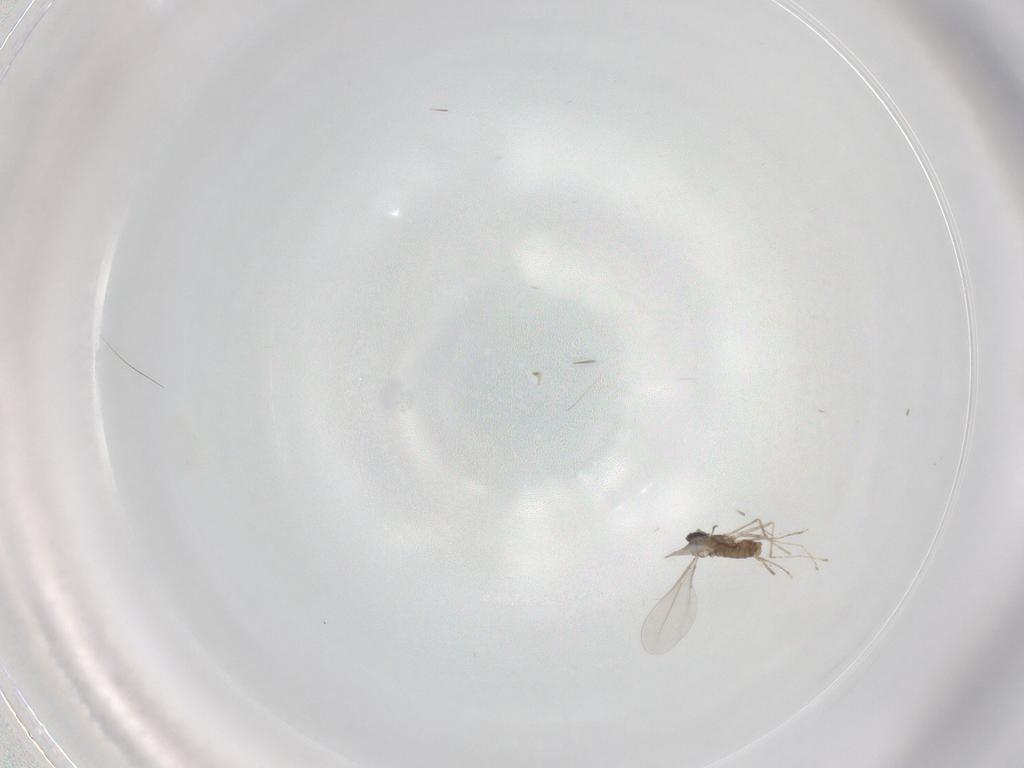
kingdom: Animalia
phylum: Arthropoda
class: Insecta
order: Diptera
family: Cecidomyiidae
